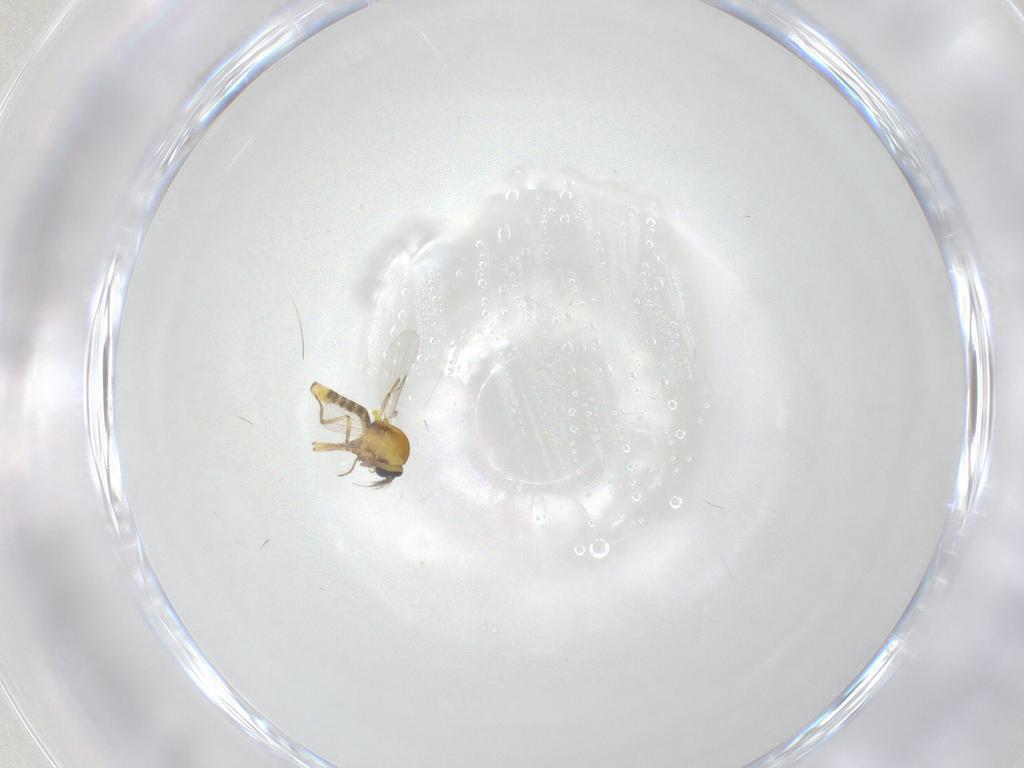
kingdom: Animalia
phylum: Arthropoda
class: Insecta
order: Diptera
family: Ceratopogonidae
